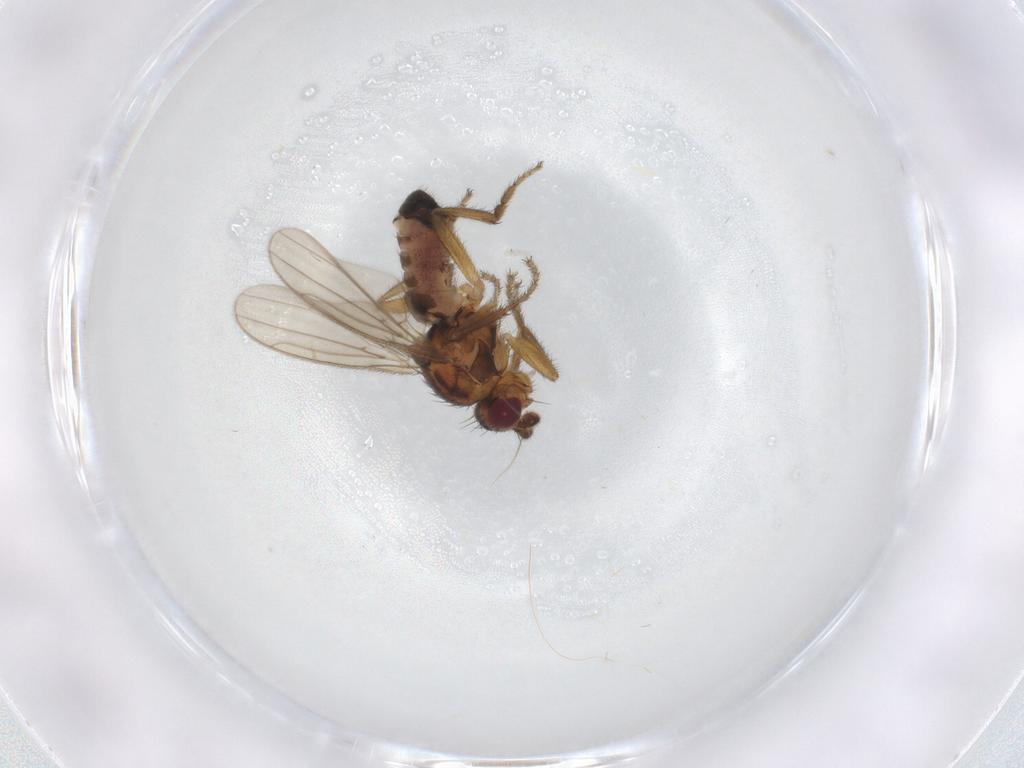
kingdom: Animalia
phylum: Arthropoda
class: Insecta
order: Diptera
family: Sphaeroceridae
